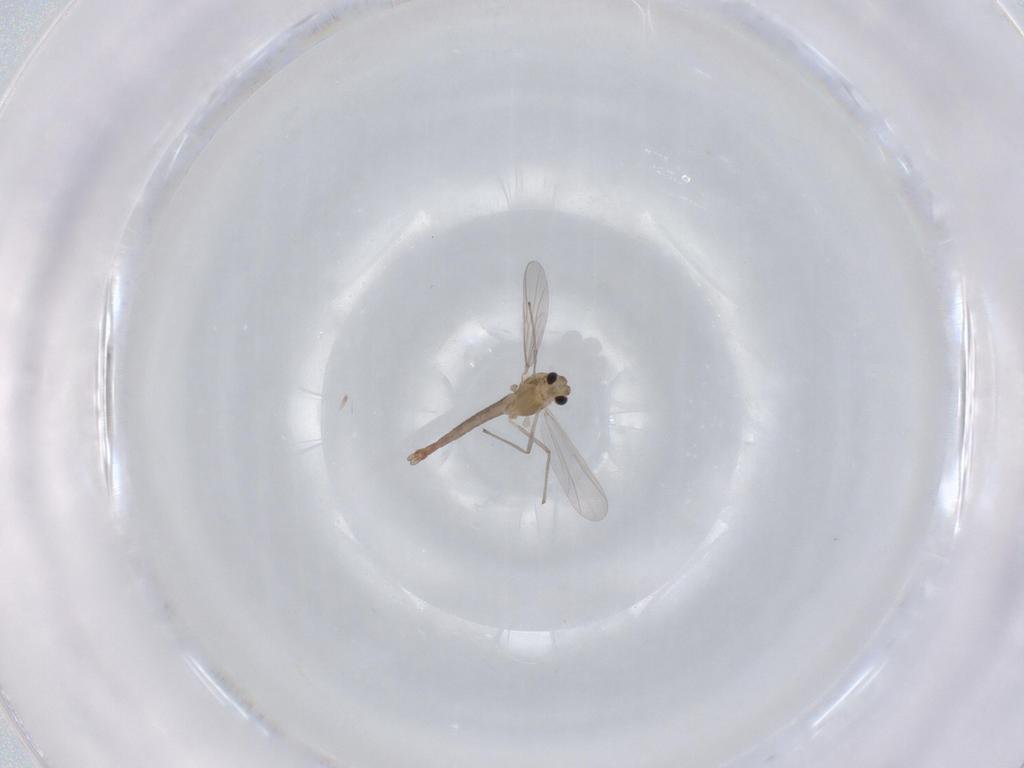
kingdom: Animalia
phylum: Arthropoda
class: Insecta
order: Diptera
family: Chironomidae
